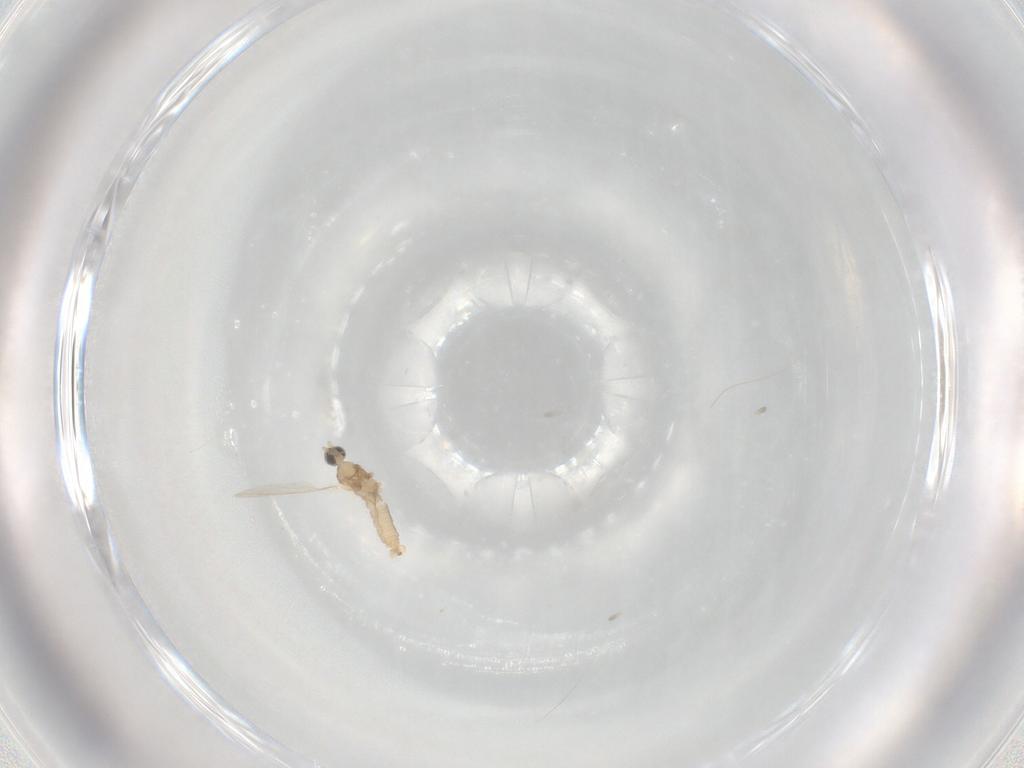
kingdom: Animalia
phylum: Arthropoda
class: Insecta
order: Diptera
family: Cecidomyiidae
